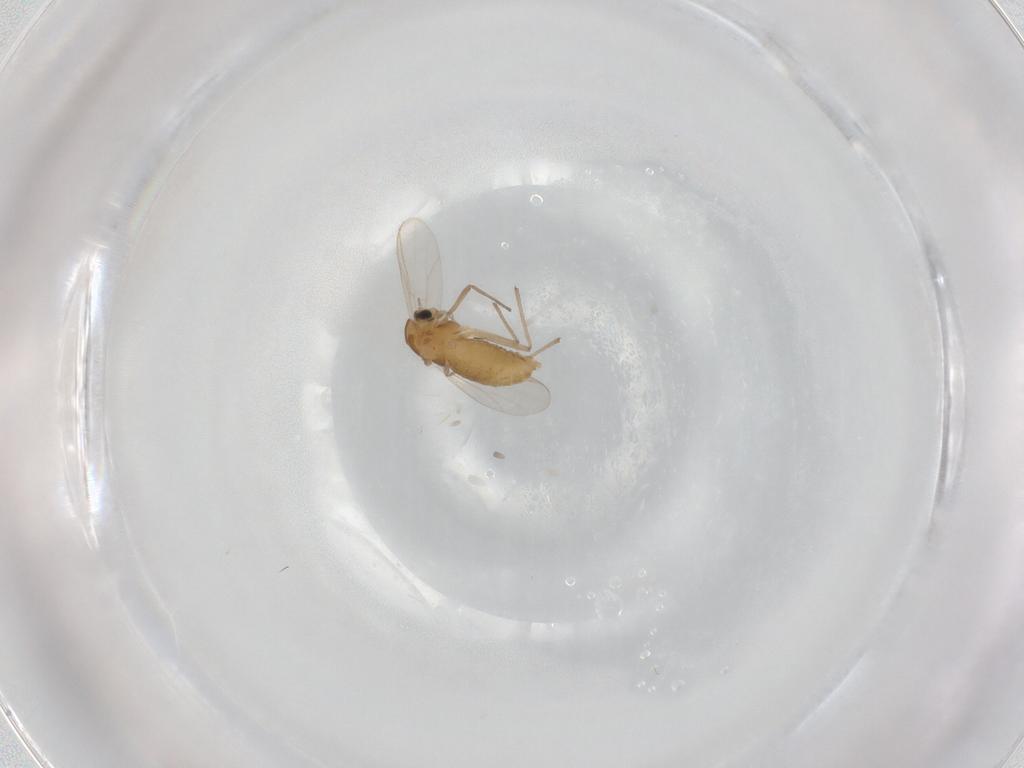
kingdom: Animalia
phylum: Arthropoda
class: Insecta
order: Diptera
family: Chironomidae
